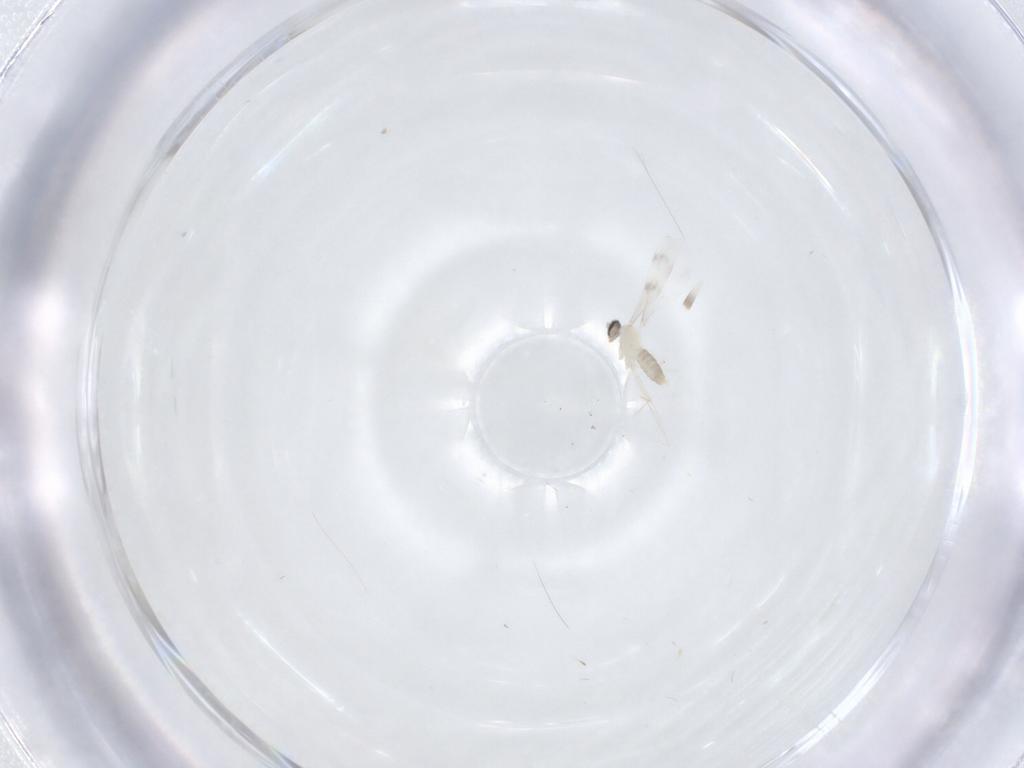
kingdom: Animalia
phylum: Arthropoda
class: Insecta
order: Diptera
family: Cecidomyiidae
